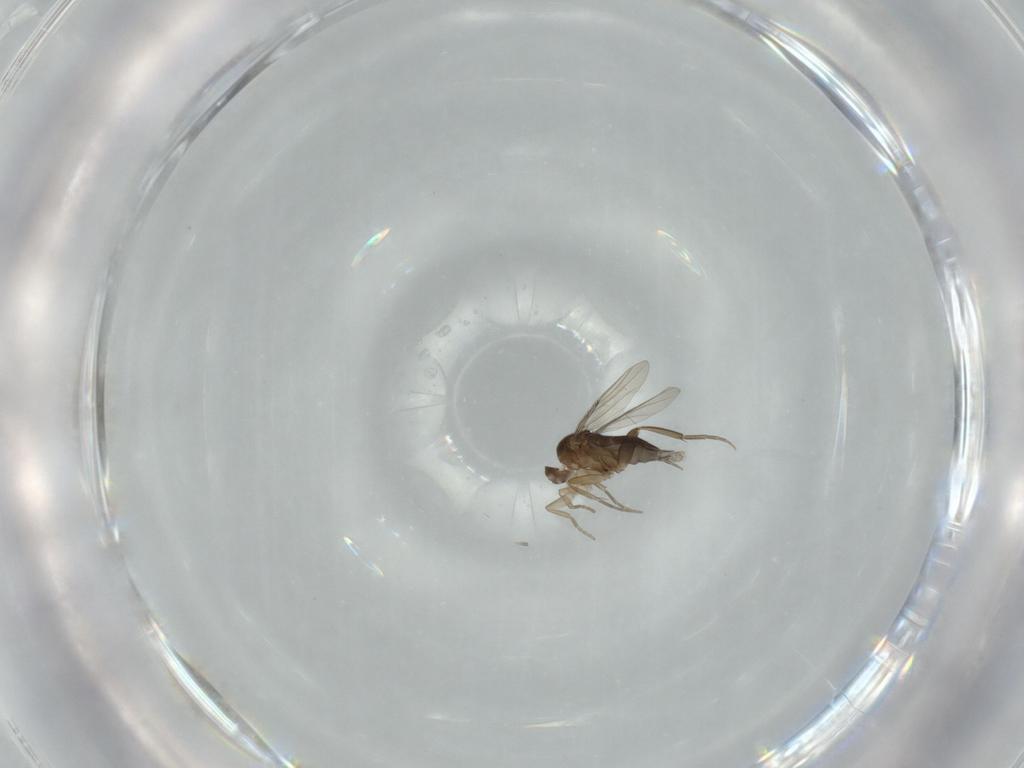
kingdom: Animalia
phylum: Arthropoda
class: Insecta
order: Diptera
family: Phoridae
